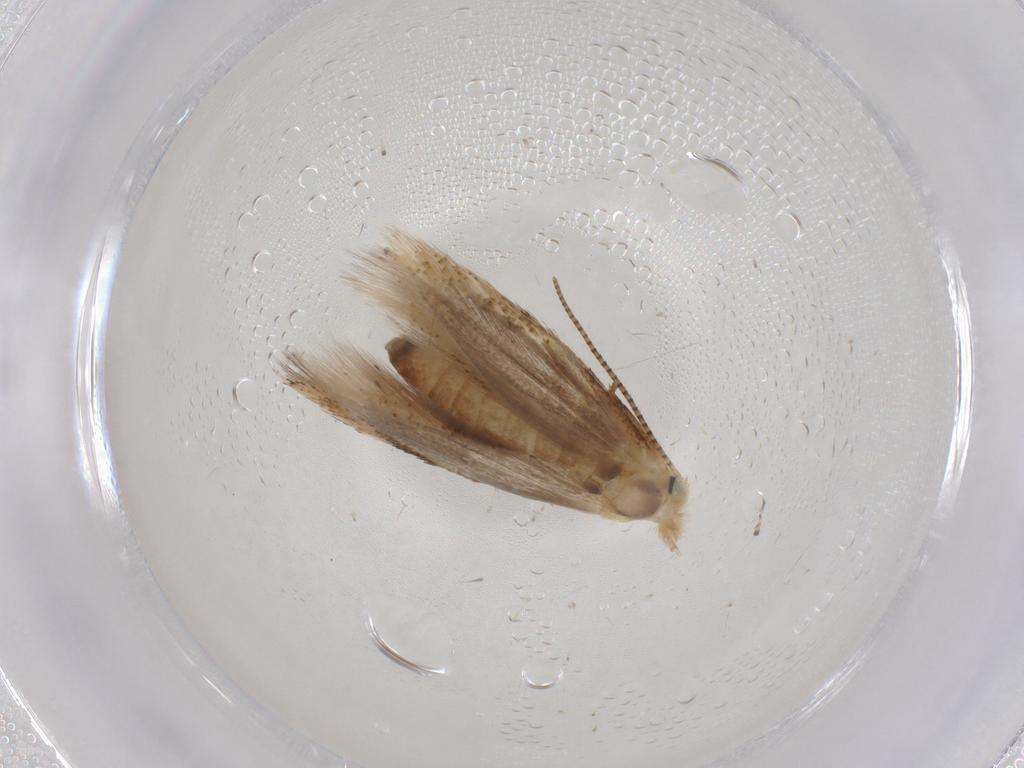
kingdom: Animalia
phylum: Arthropoda
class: Insecta
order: Lepidoptera
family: Bucculatricidae
